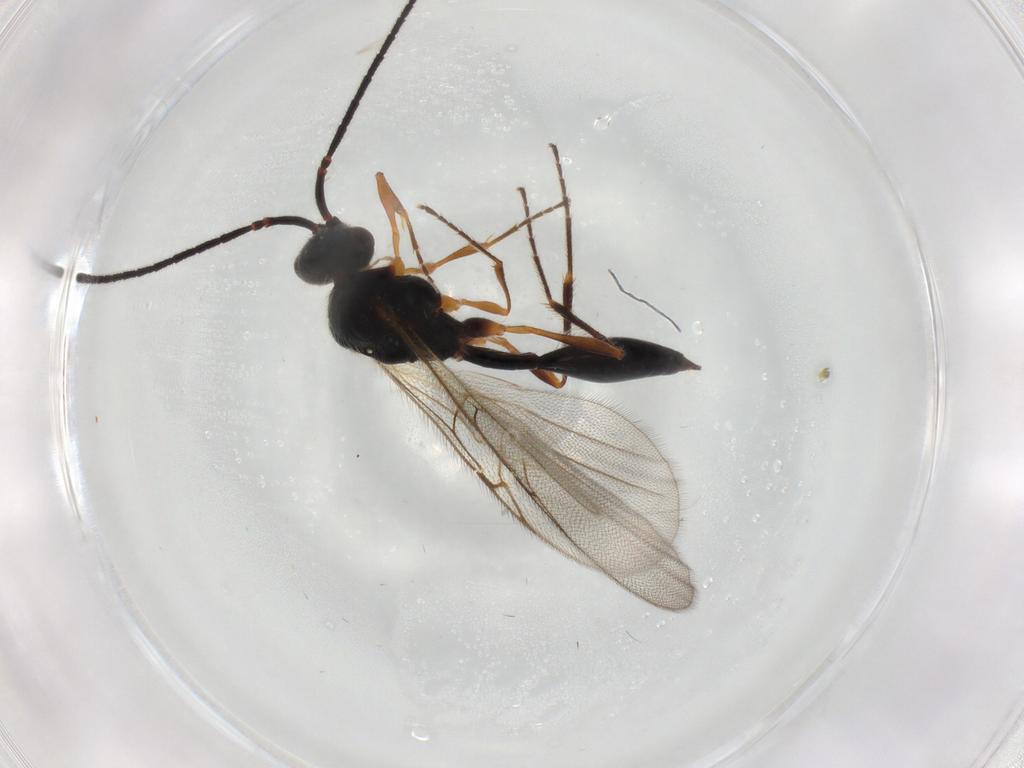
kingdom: Animalia
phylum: Arthropoda
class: Insecta
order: Hymenoptera
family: Diapriidae
